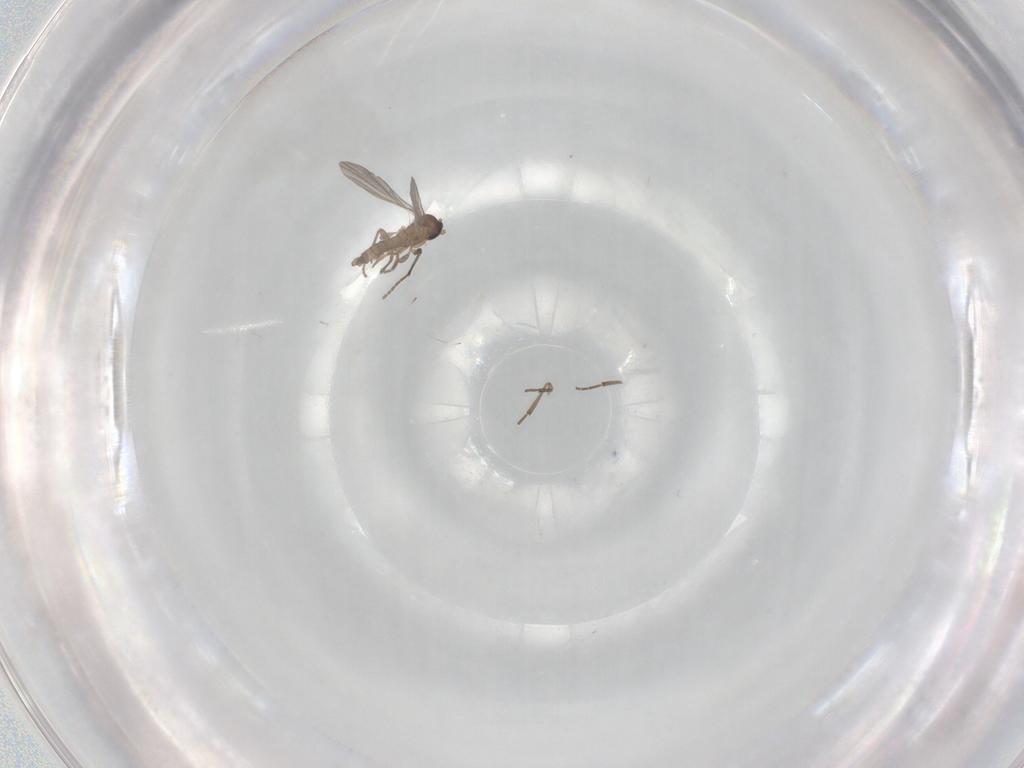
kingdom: Animalia
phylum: Arthropoda
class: Insecta
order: Diptera
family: Sciaridae
